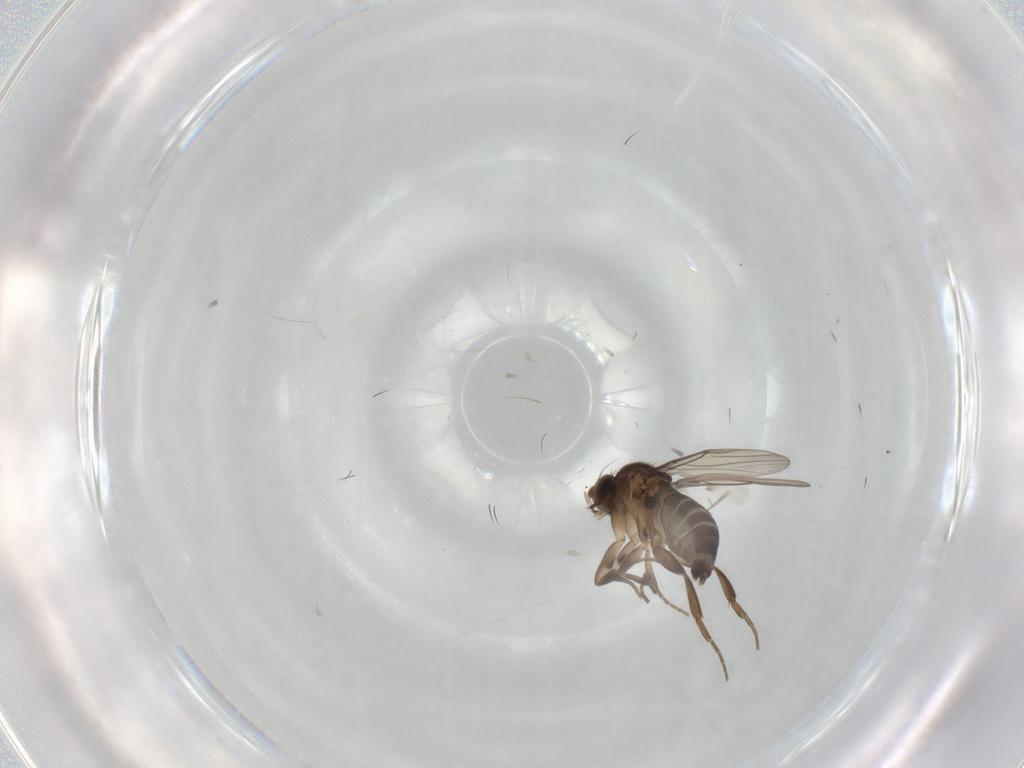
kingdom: Animalia
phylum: Arthropoda
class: Insecta
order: Diptera
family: Phoridae
